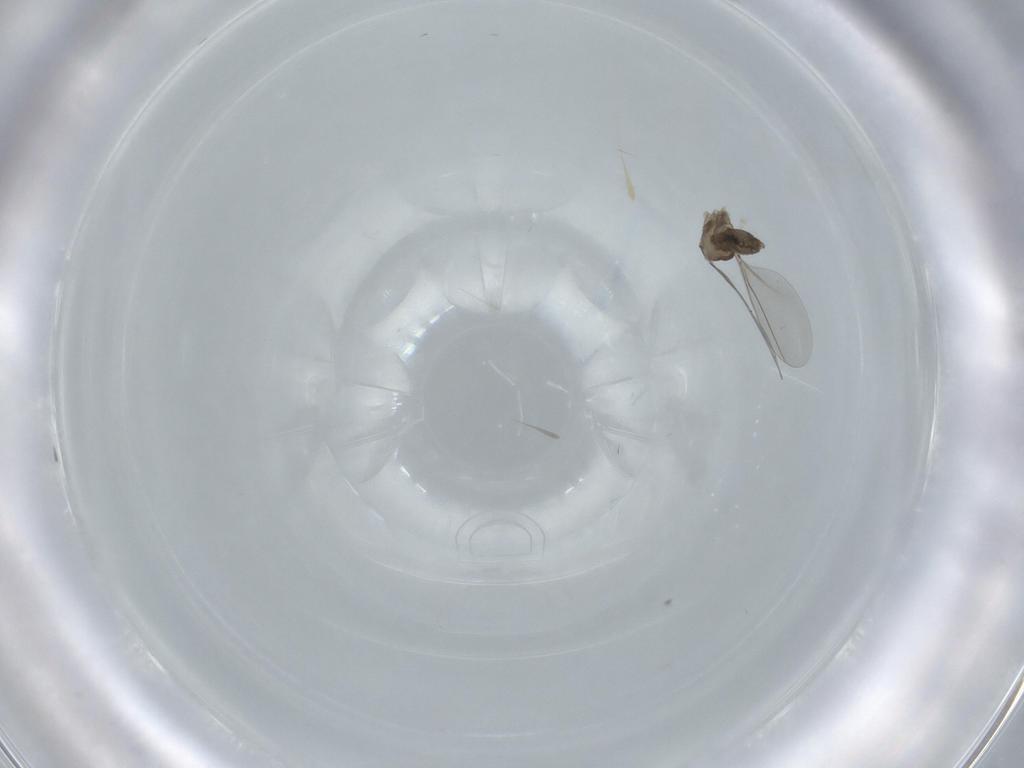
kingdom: Animalia
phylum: Arthropoda
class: Insecta
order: Diptera
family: Cecidomyiidae
